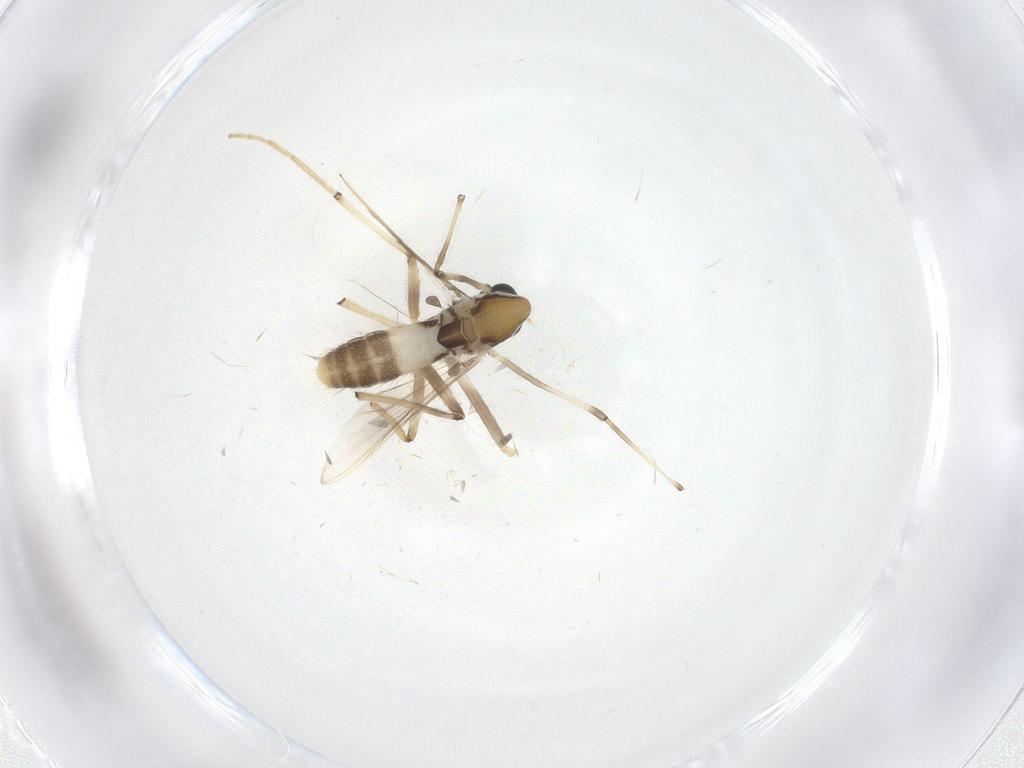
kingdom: Animalia
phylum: Arthropoda
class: Insecta
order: Diptera
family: Chironomidae
